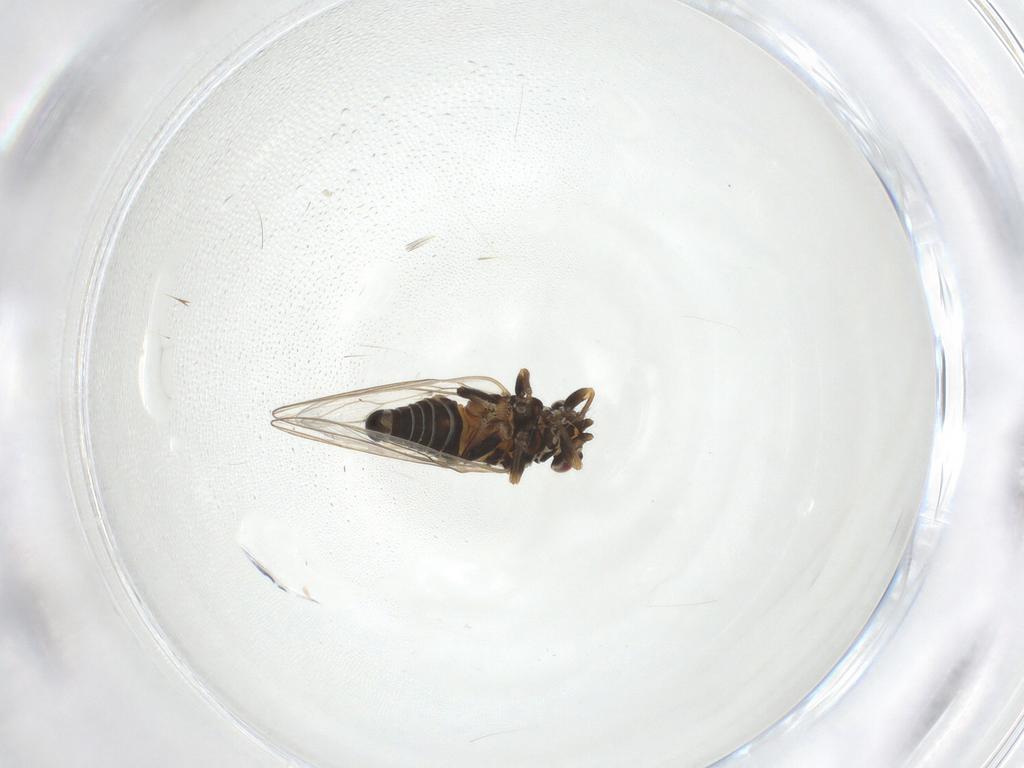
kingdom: Animalia
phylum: Arthropoda
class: Insecta
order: Diptera
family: Chironomidae
